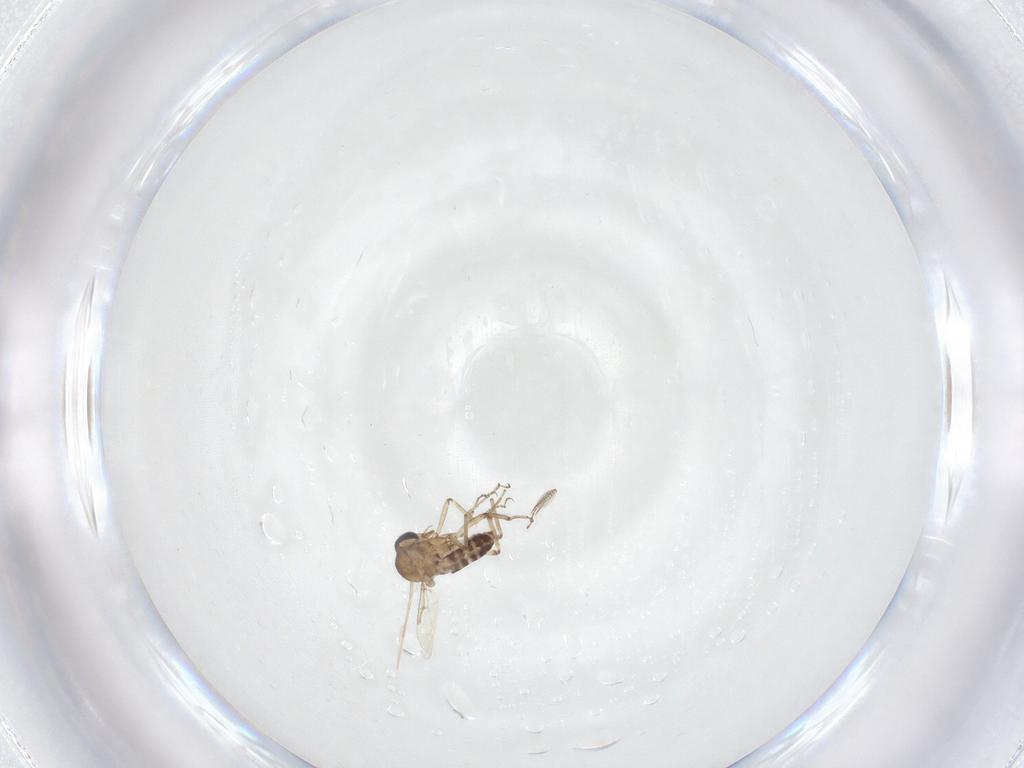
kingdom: Animalia
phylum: Arthropoda
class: Insecta
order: Diptera
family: Ceratopogonidae
